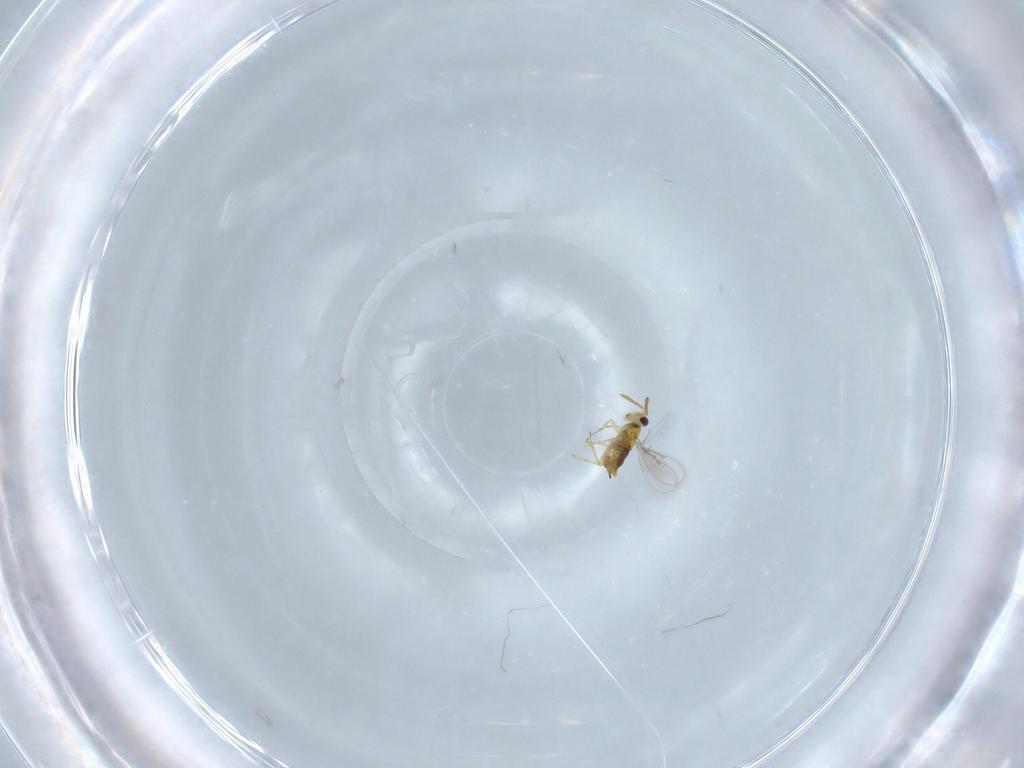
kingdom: Animalia
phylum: Arthropoda
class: Insecta
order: Hymenoptera
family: Aphelinidae
